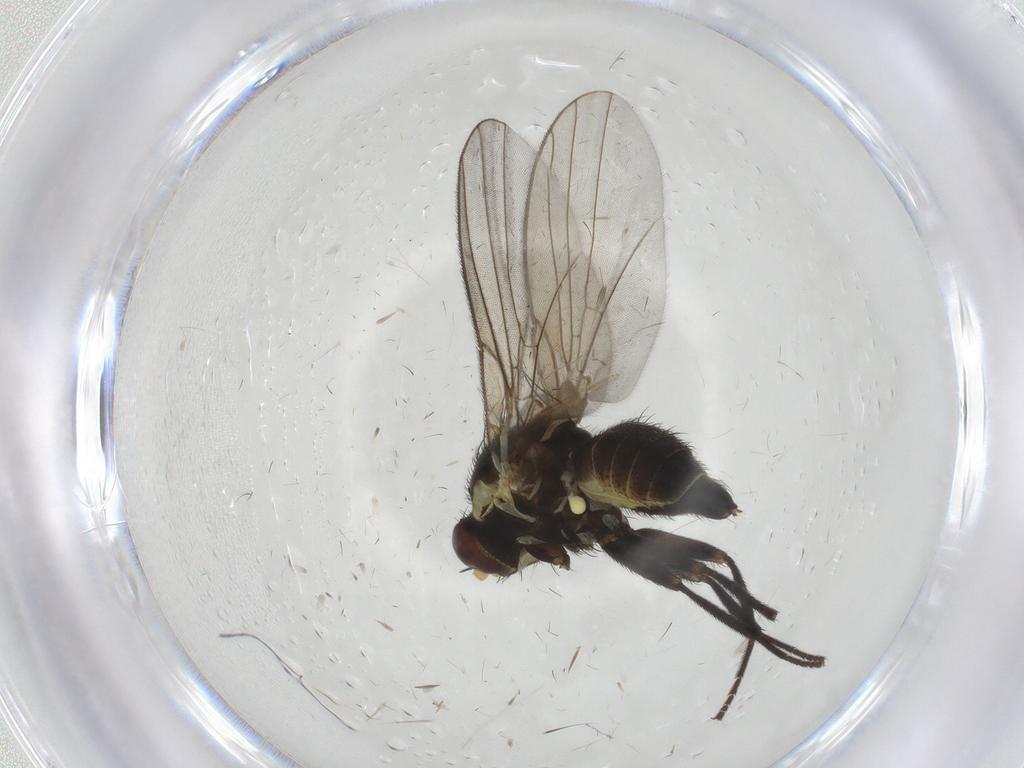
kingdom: Animalia
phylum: Arthropoda
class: Insecta
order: Diptera
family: Agromyzidae
